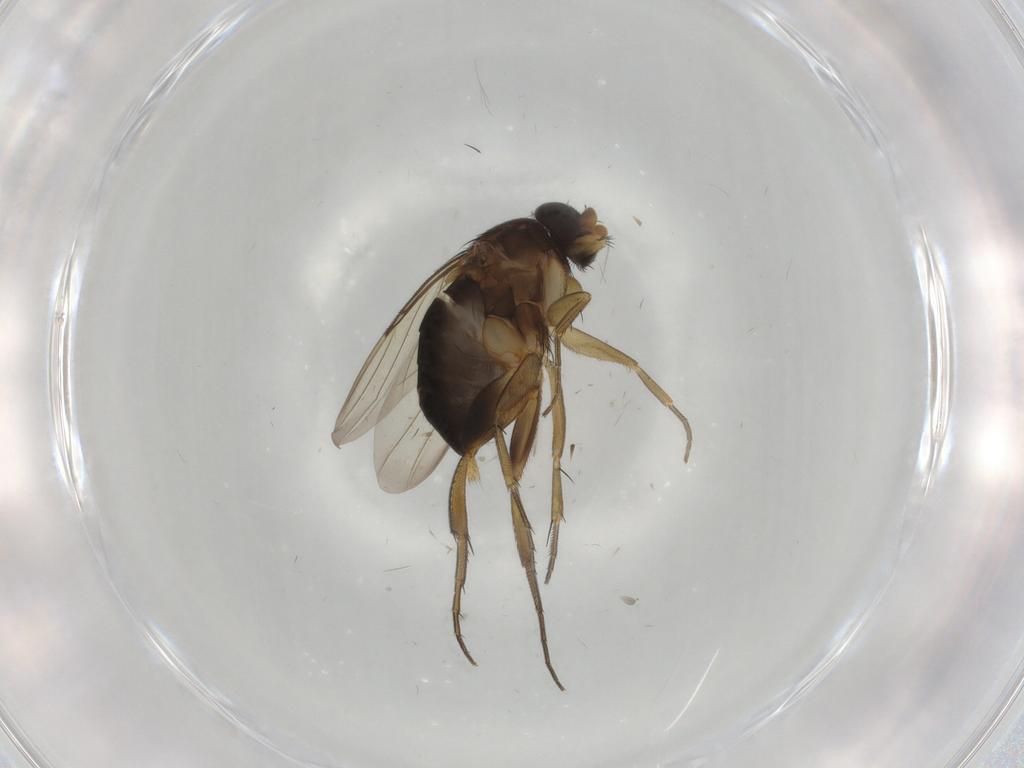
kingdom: Animalia
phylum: Arthropoda
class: Insecta
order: Diptera
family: Phoridae
